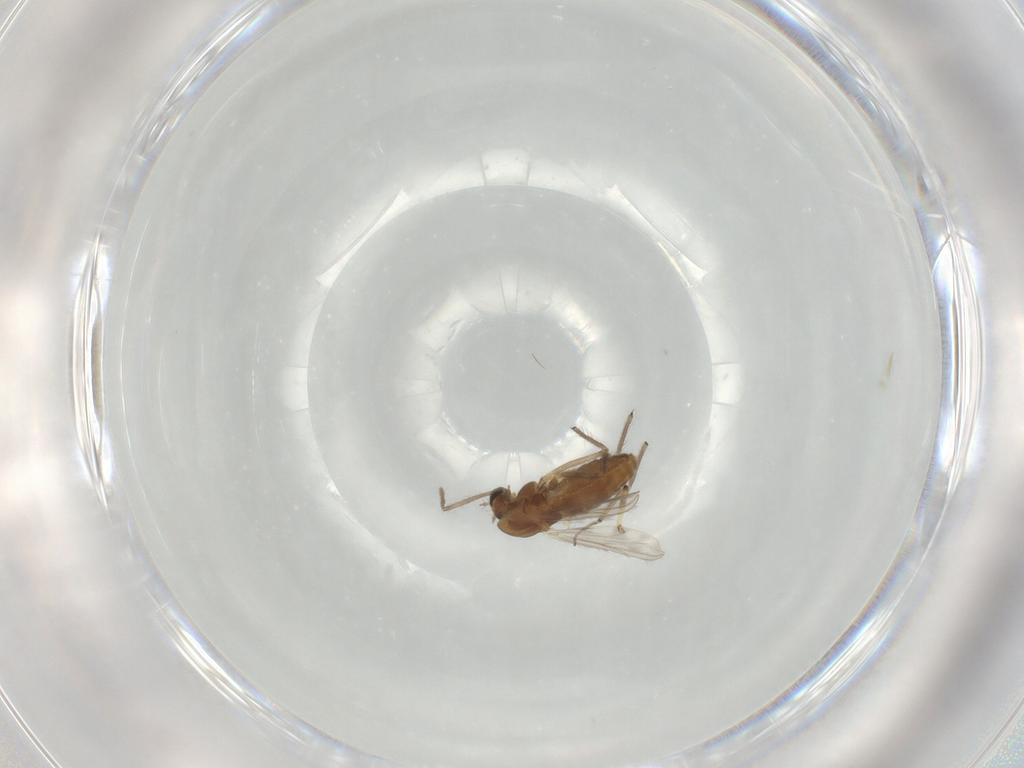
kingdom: Animalia
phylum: Arthropoda
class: Insecta
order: Diptera
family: Chironomidae
